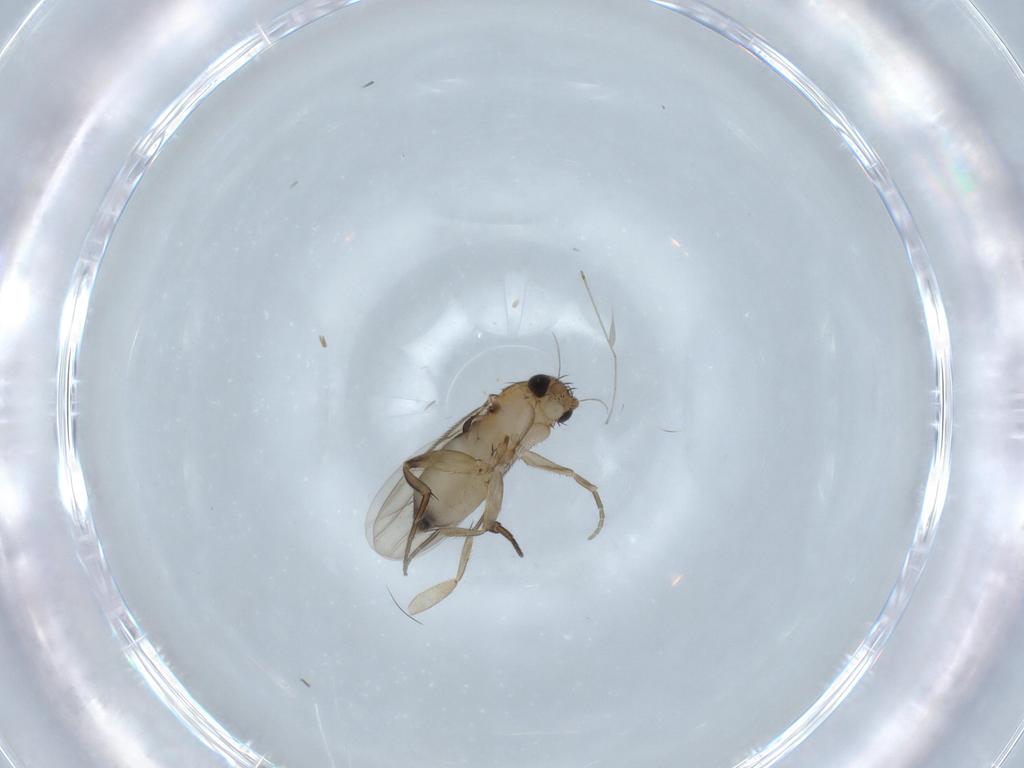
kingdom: Animalia
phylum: Arthropoda
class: Insecta
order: Diptera
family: Phoridae
